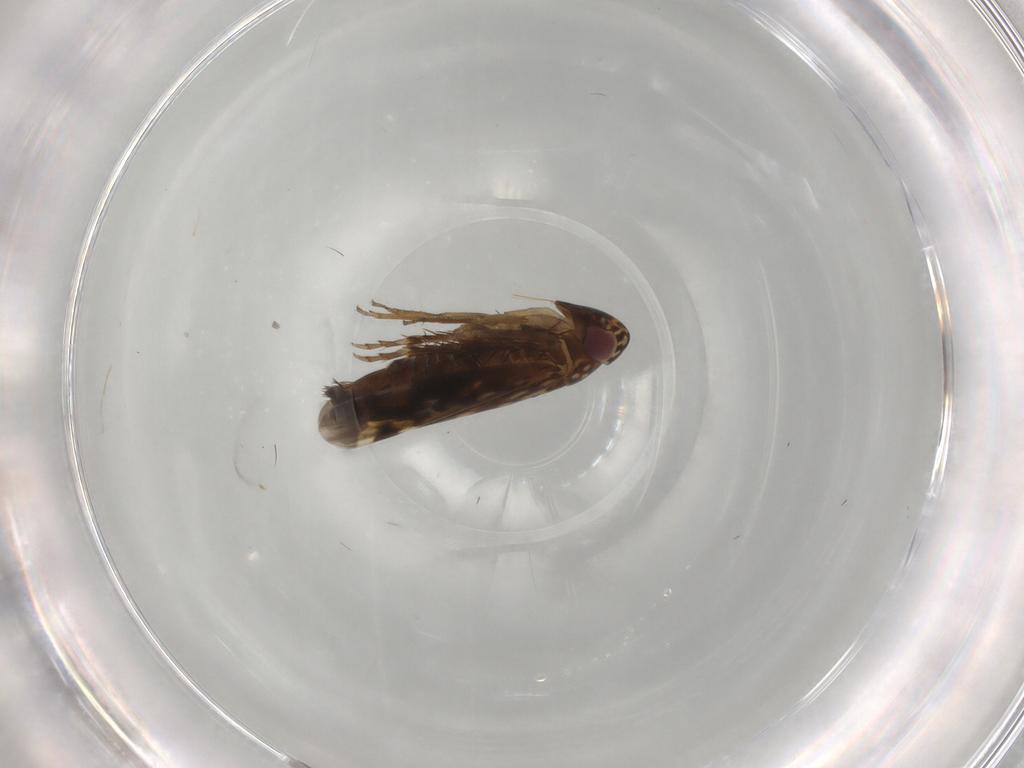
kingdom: Animalia
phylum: Arthropoda
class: Insecta
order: Hemiptera
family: Cicadellidae
